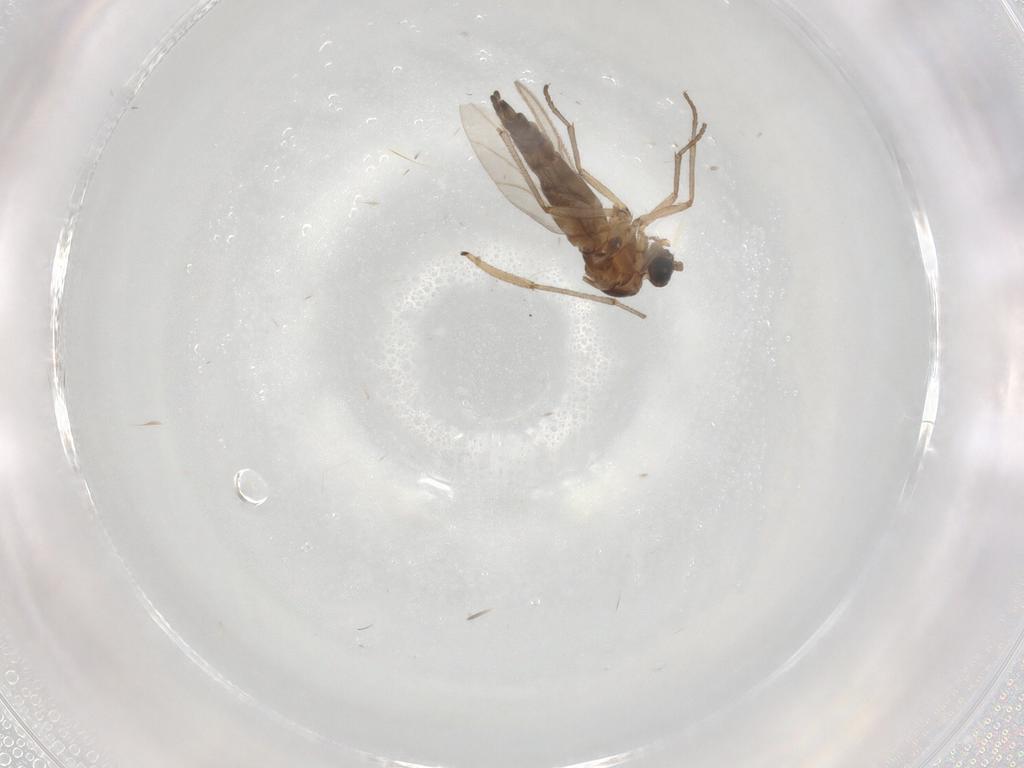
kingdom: Animalia
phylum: Arthropoda
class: Insecta
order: Diptera
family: Sciaridae
